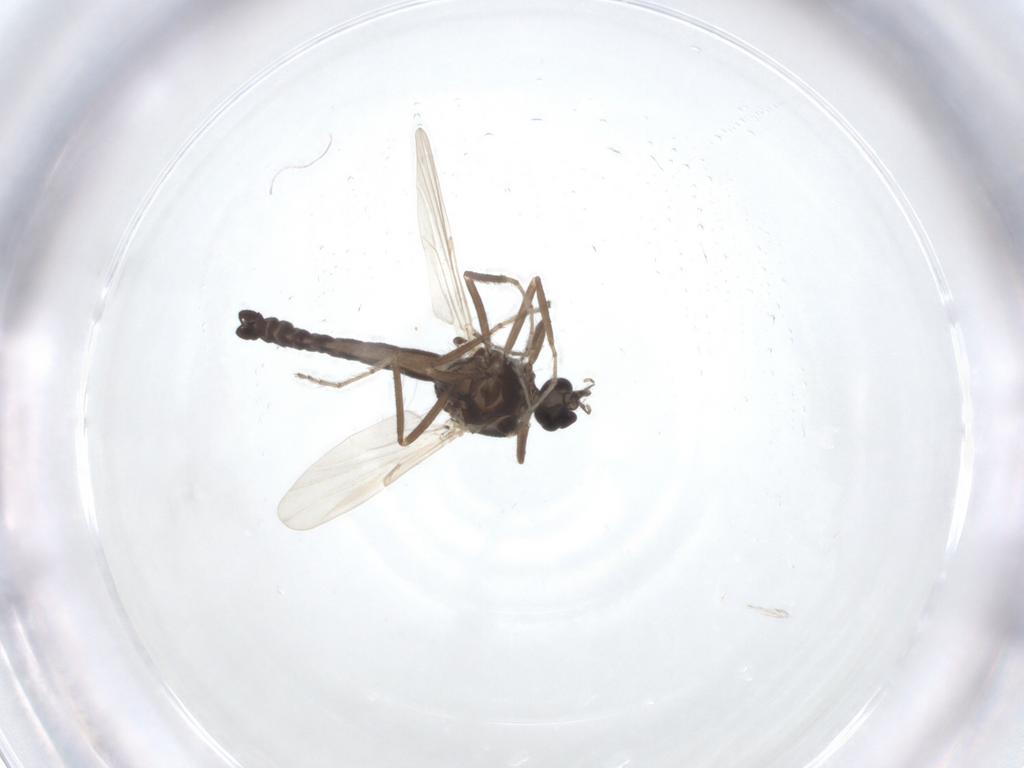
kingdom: Animalia
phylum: Arthropoda
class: Insecta
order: Diptera
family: Ceratopogonidae
